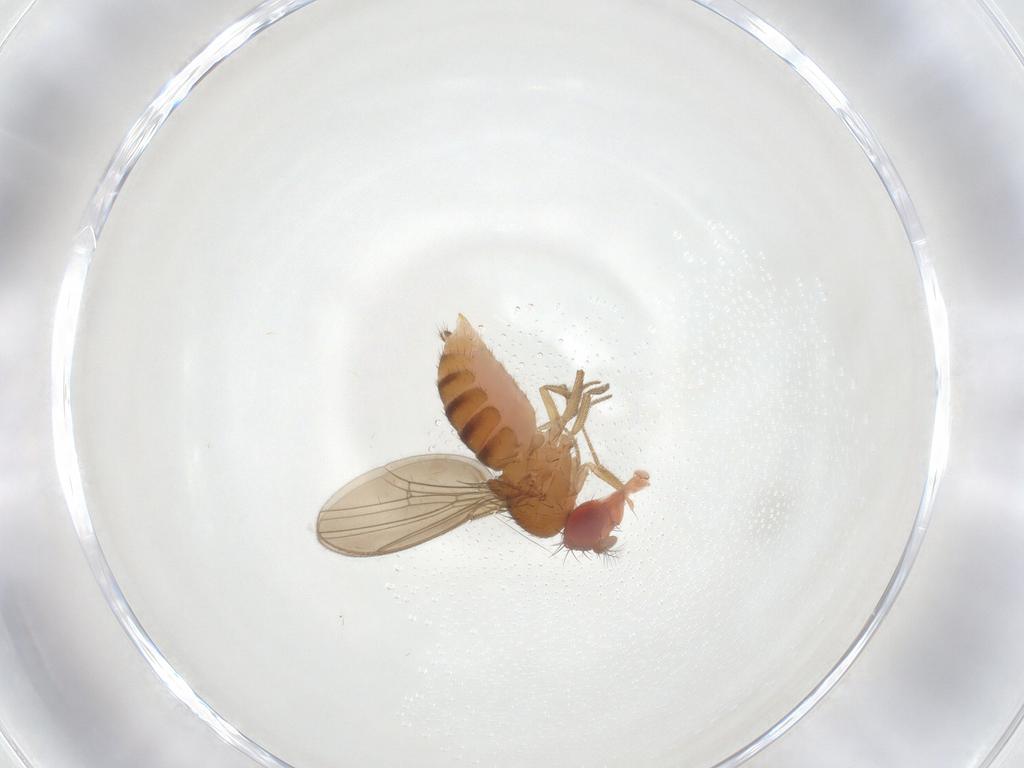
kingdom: Animalia
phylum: Arthropoda
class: Insecta
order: Diptera
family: Drosophilidae
